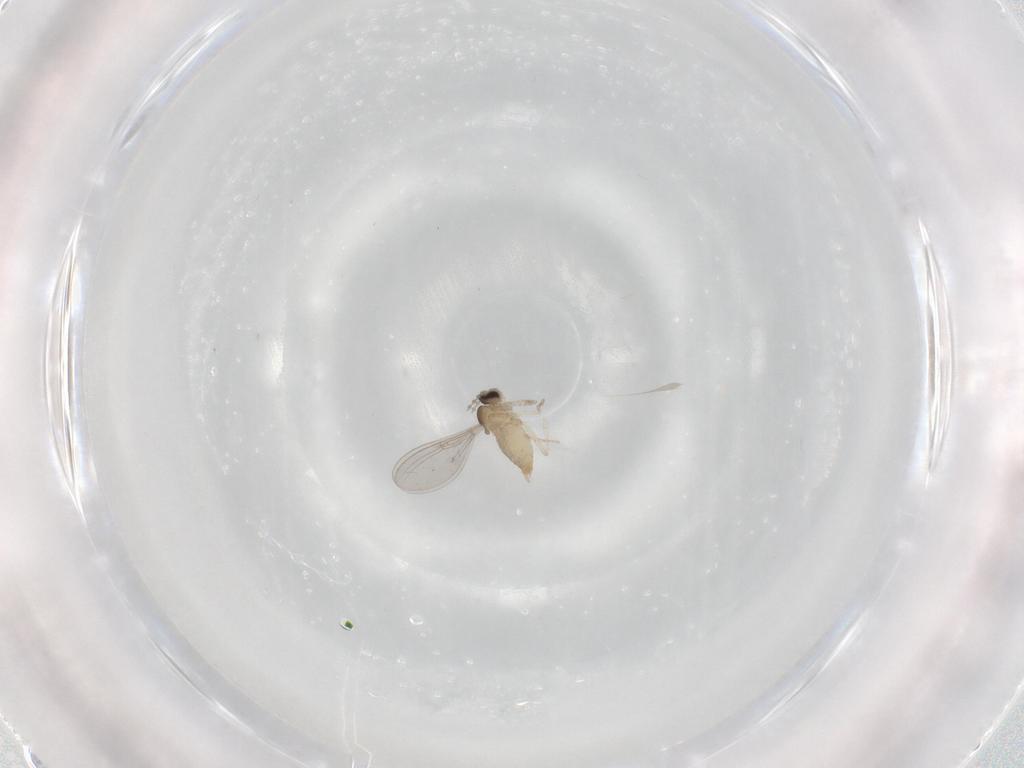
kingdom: Animalia
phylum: Arthropoda
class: Insecta
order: Diptera
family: Cecidomyiidae
